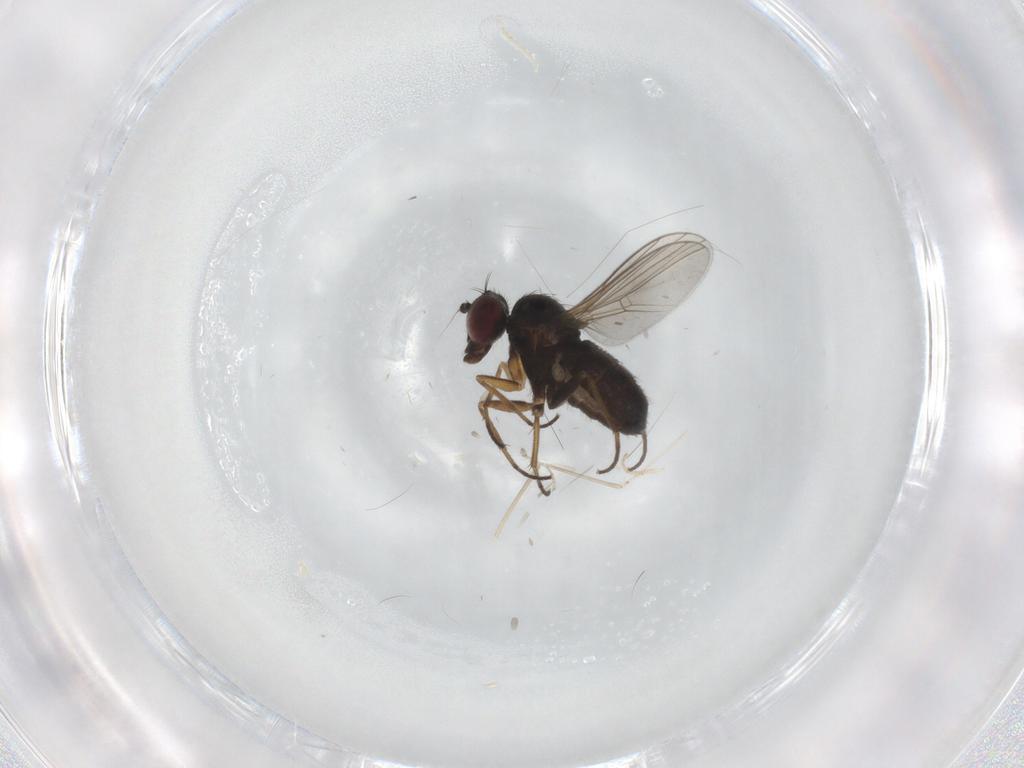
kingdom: Animalia
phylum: Arthropoda
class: Insecta
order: Diptera
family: Dolichopodidae
